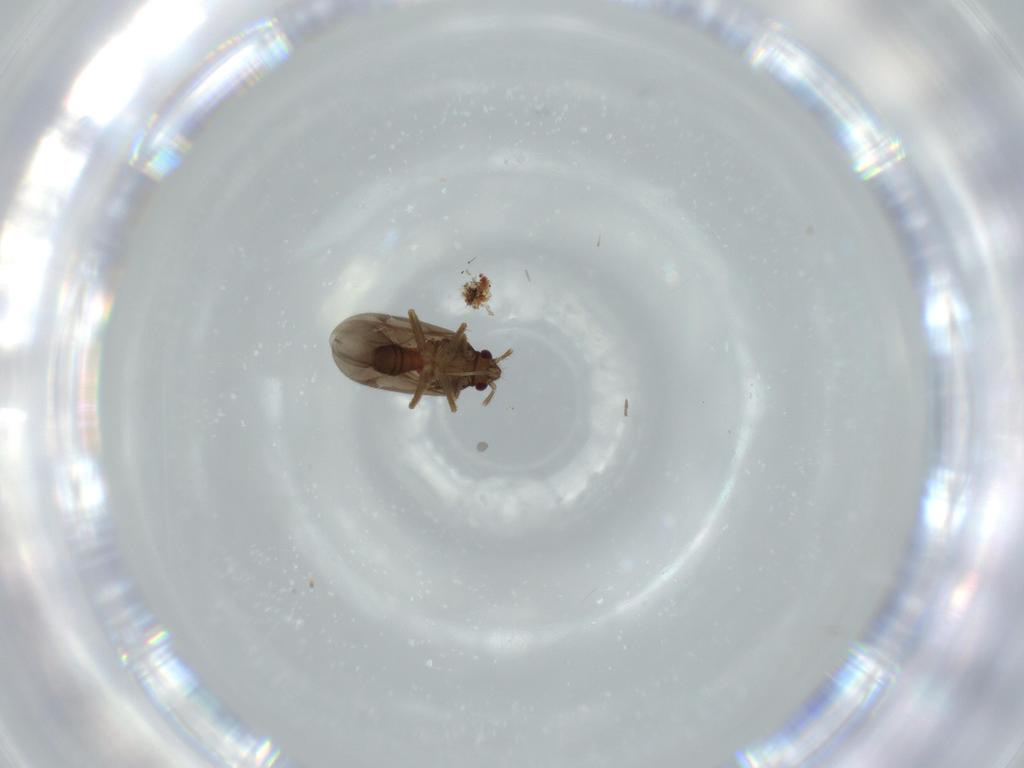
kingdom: Animalia
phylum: Arthropoda
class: Insecta
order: Hemiptera
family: Ceratocombidae
